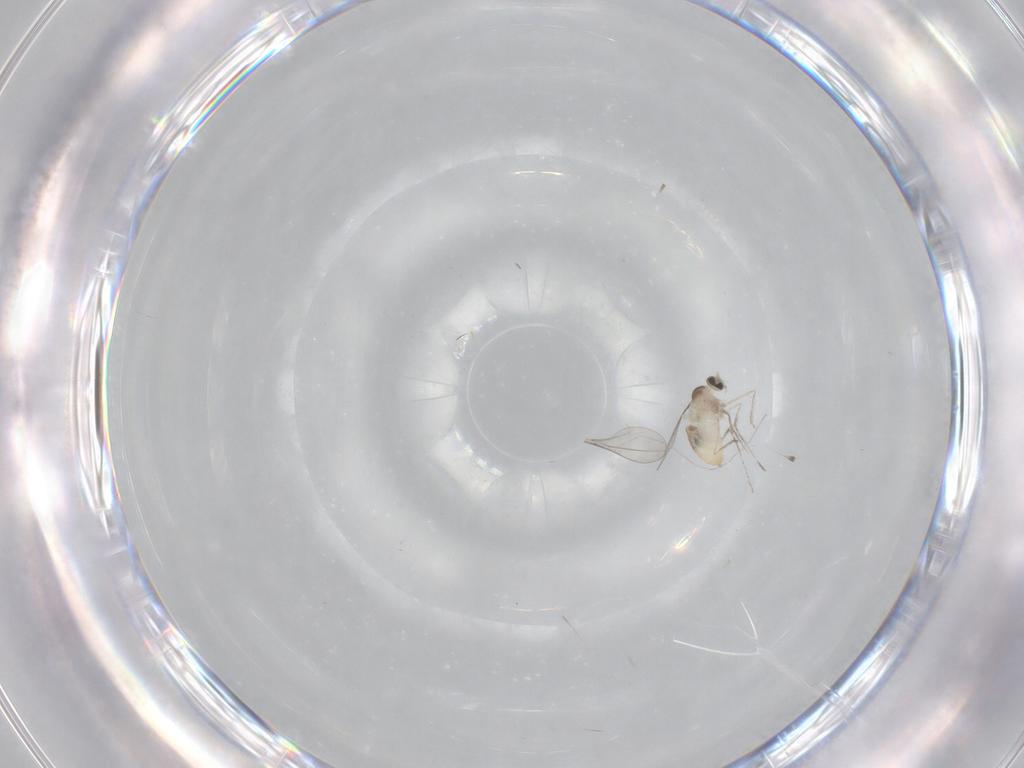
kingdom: Animalia
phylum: Arthropoda
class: Insecta
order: Diptera
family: Cecidomyiidae
